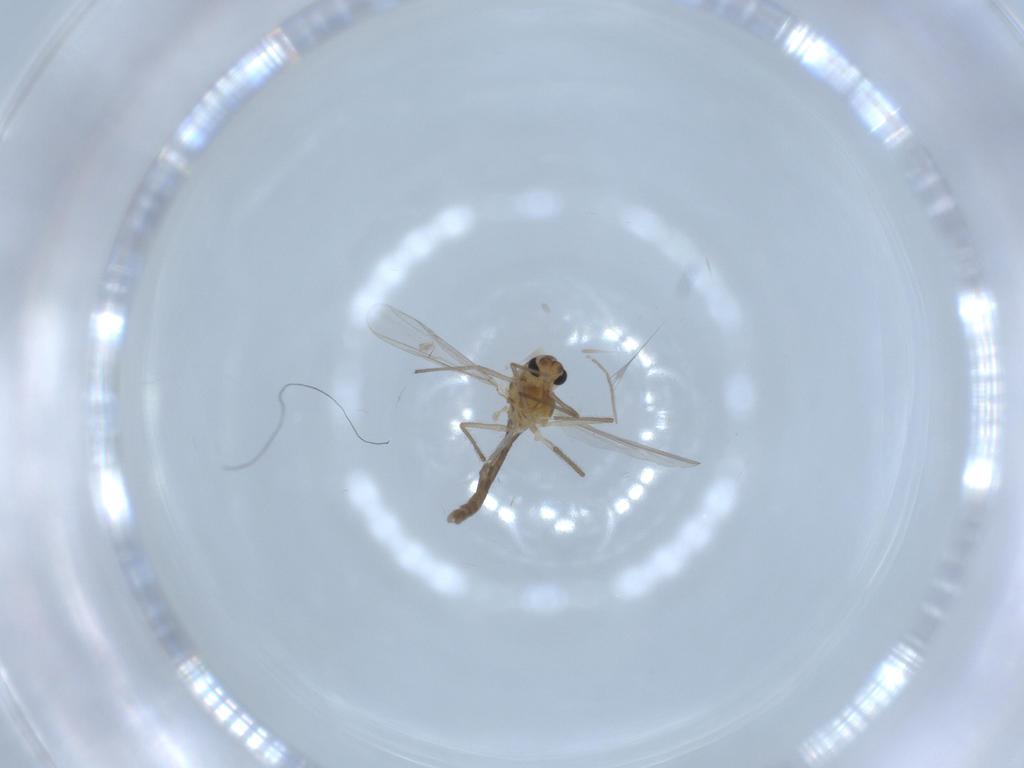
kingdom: Animalia
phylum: Arthropoda
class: Insecta
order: Diptera
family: Chironomidae
